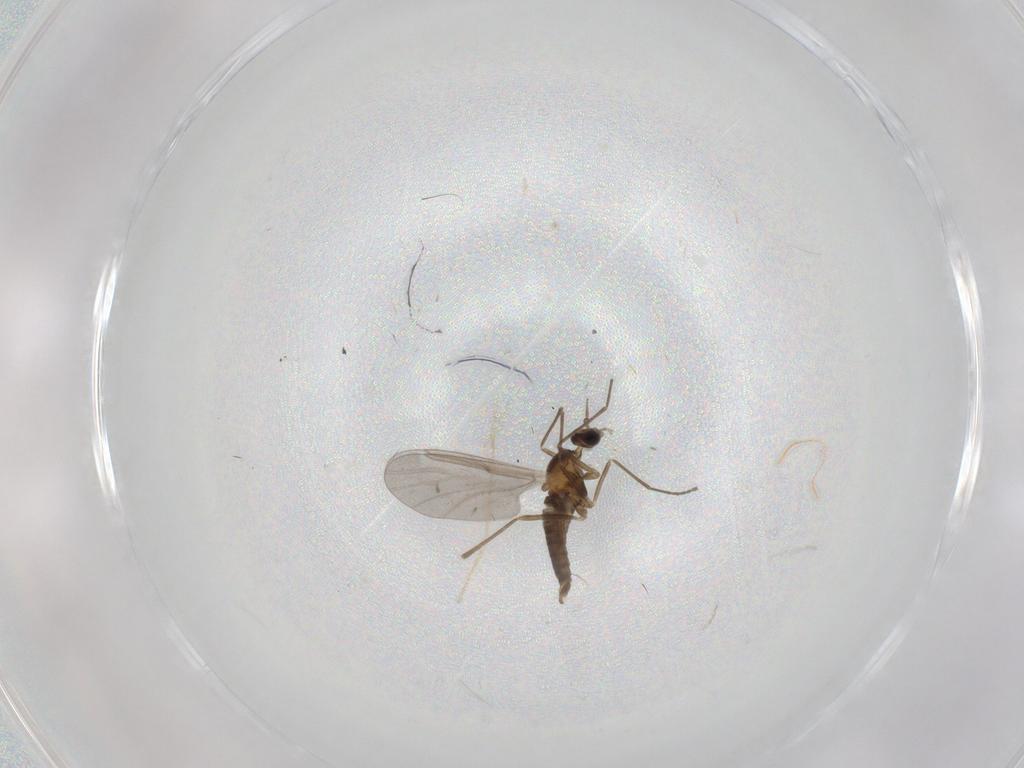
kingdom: Animalia
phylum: Arthropoda
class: Insecta
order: Diptera
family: Cecidomyiidae
